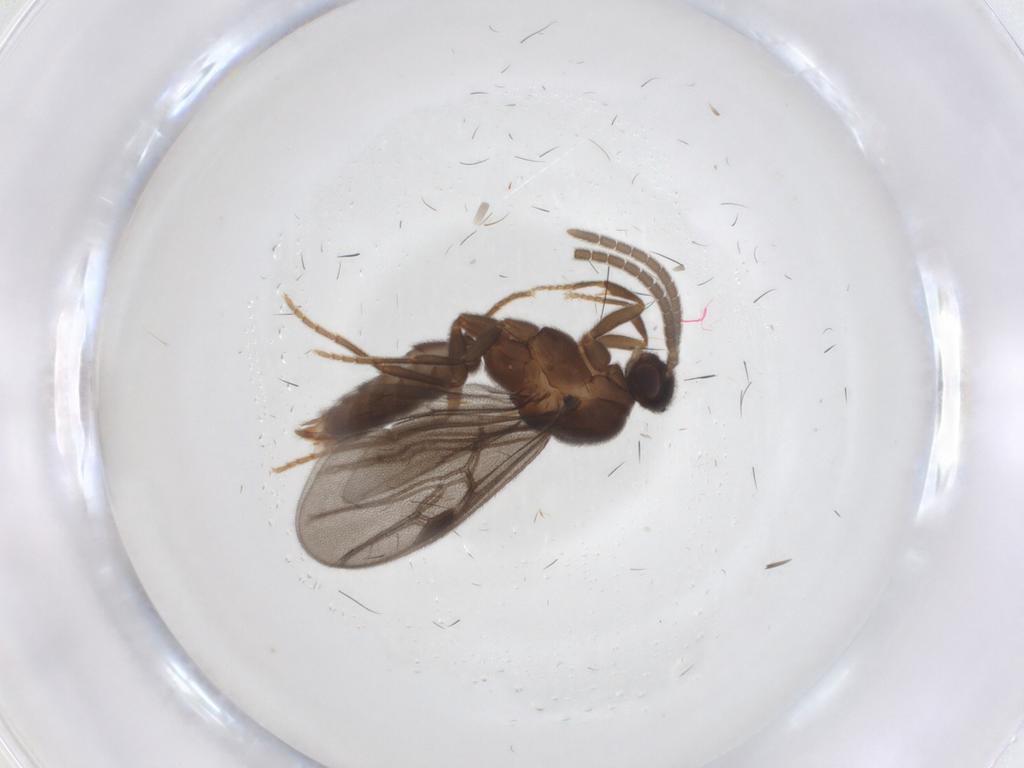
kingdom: Animalia
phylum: Arthropoda
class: Insecta
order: Hymenoptera
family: Formicidae
